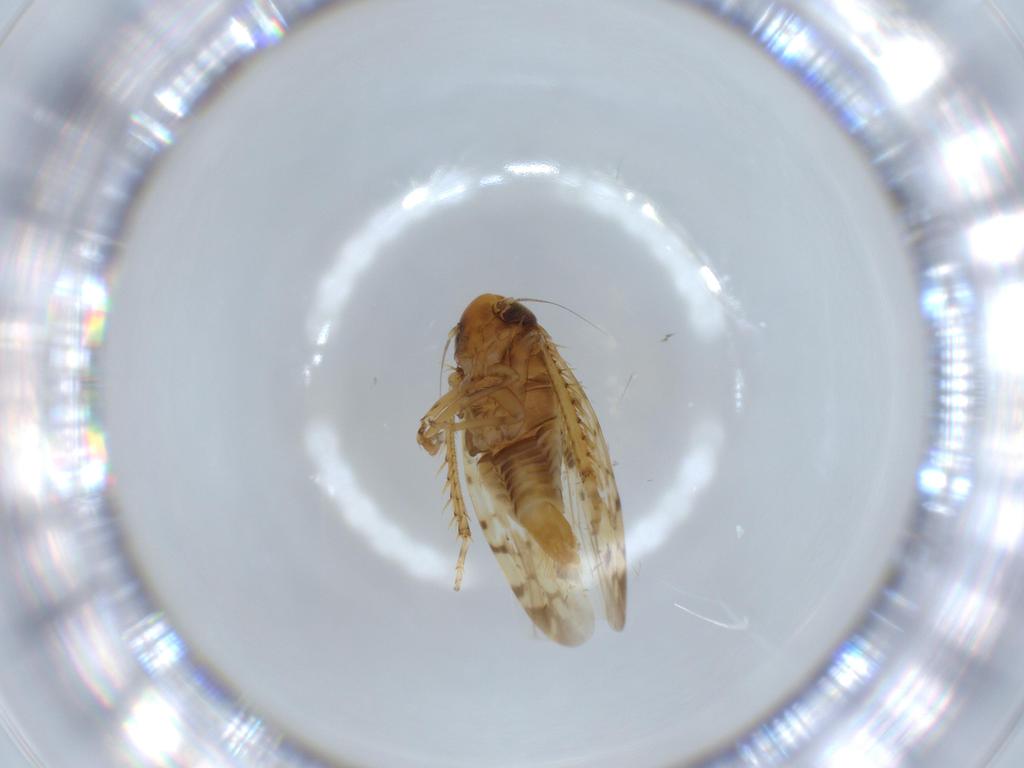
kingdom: Animalia
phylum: Arthropoda
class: Insecta
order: Hemiptera
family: Cicadellidae
